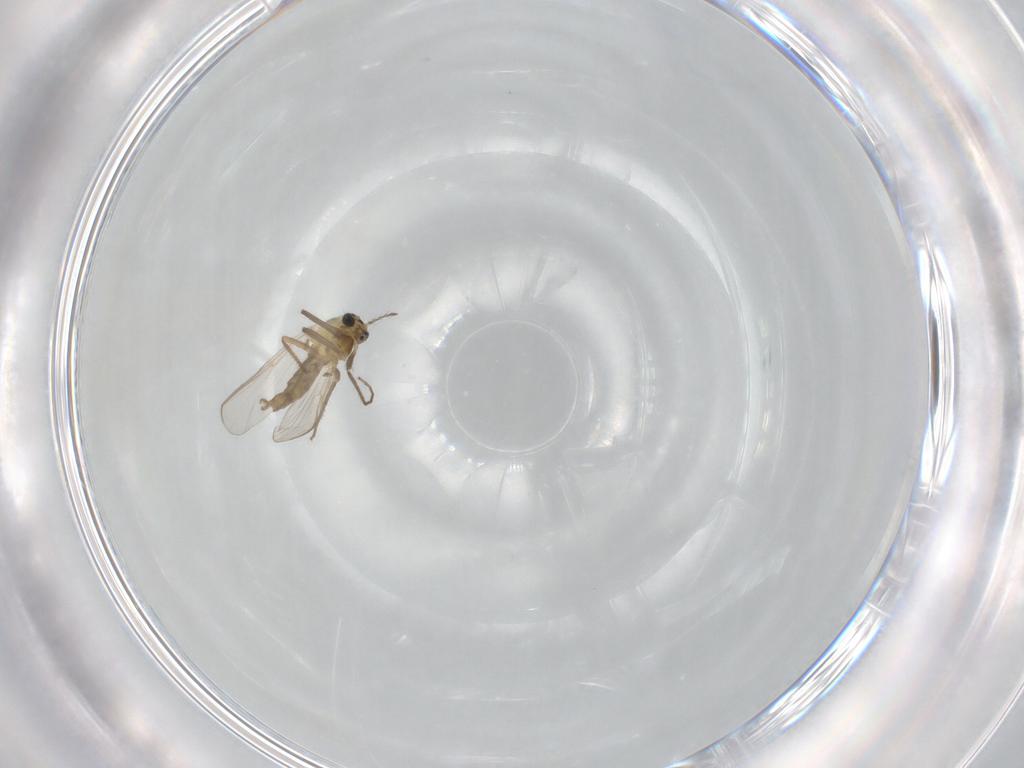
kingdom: Animalia
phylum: Arthropoda
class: Insecta
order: Diptera
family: Chironomidae
